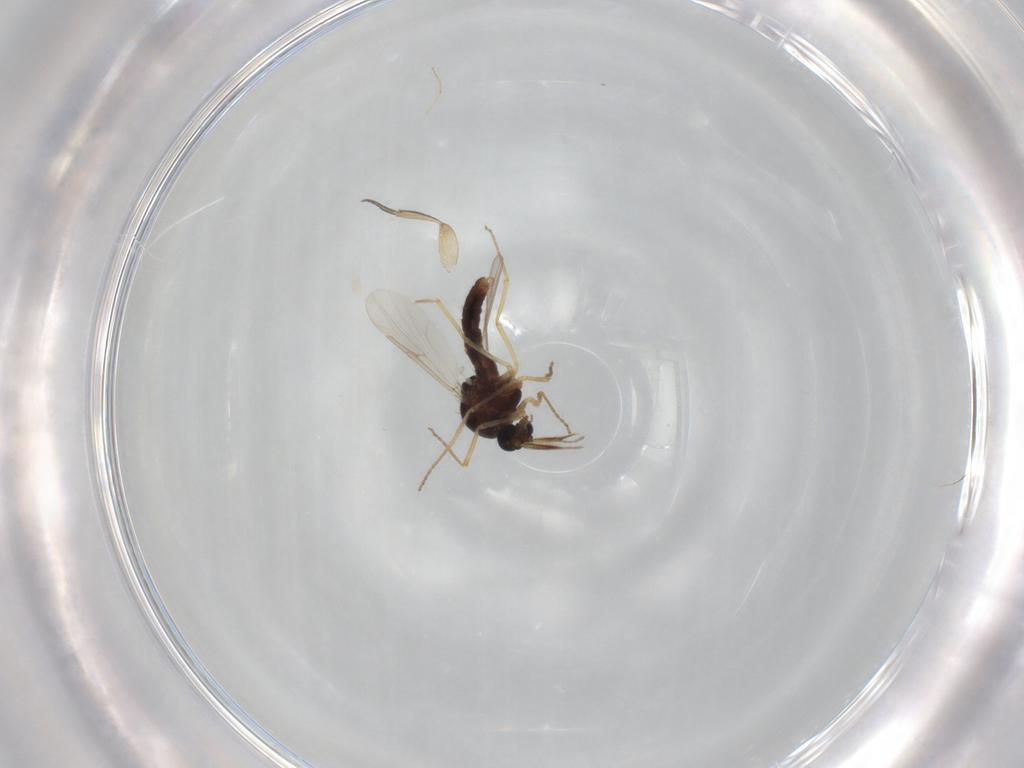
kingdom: Animalia
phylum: Arthropoda
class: Insecta
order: Diptera
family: Ceratopogonidae
